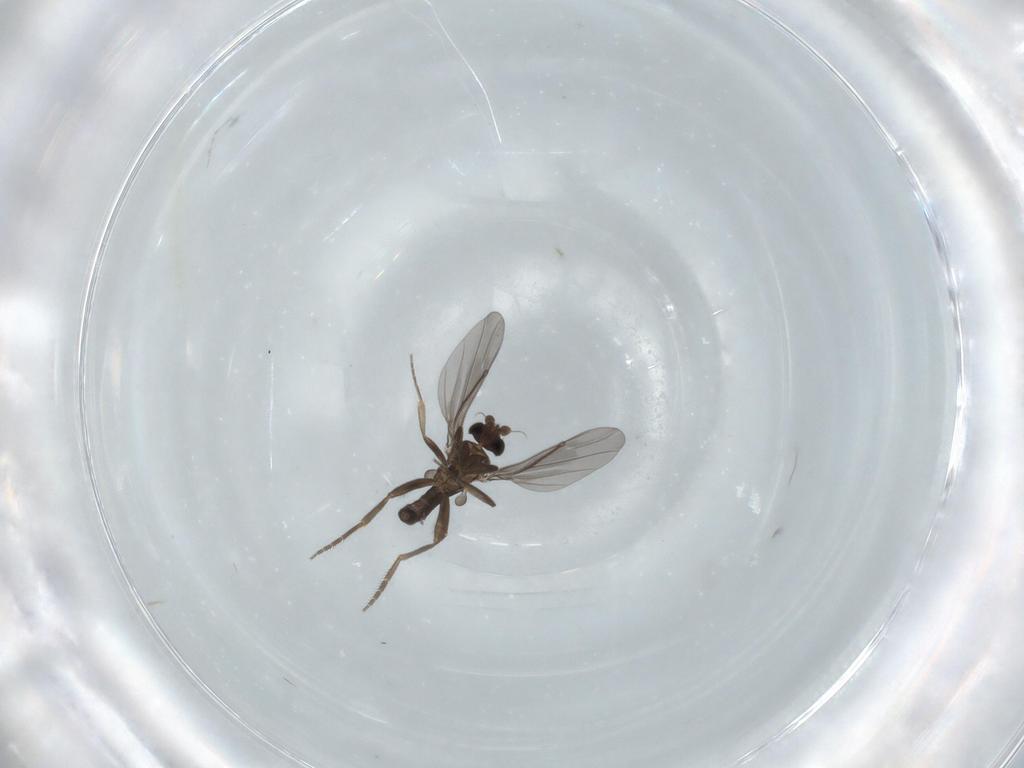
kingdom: Animalia
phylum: Arthropoda
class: Insecta
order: Diptera
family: Phoridae
